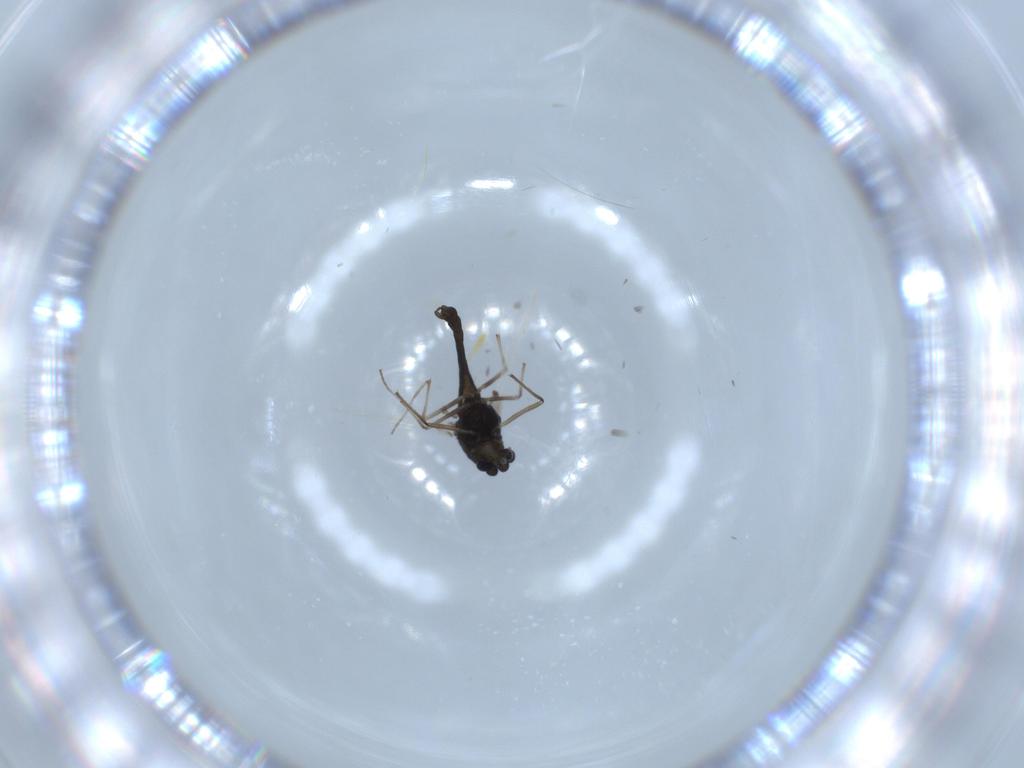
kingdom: Animalia
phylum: Arthropoda
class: Insecta
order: Diptera
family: Chironomidae
